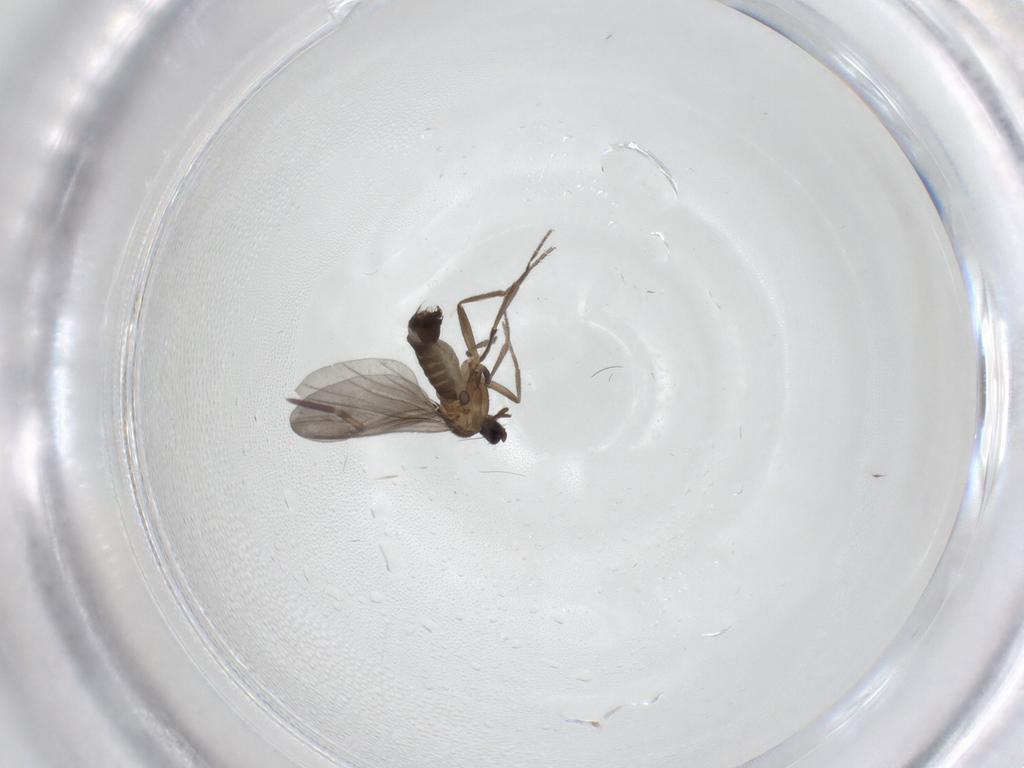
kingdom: Animalia
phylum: Arthropoda
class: Insecta
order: Diptera
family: Phoridae
